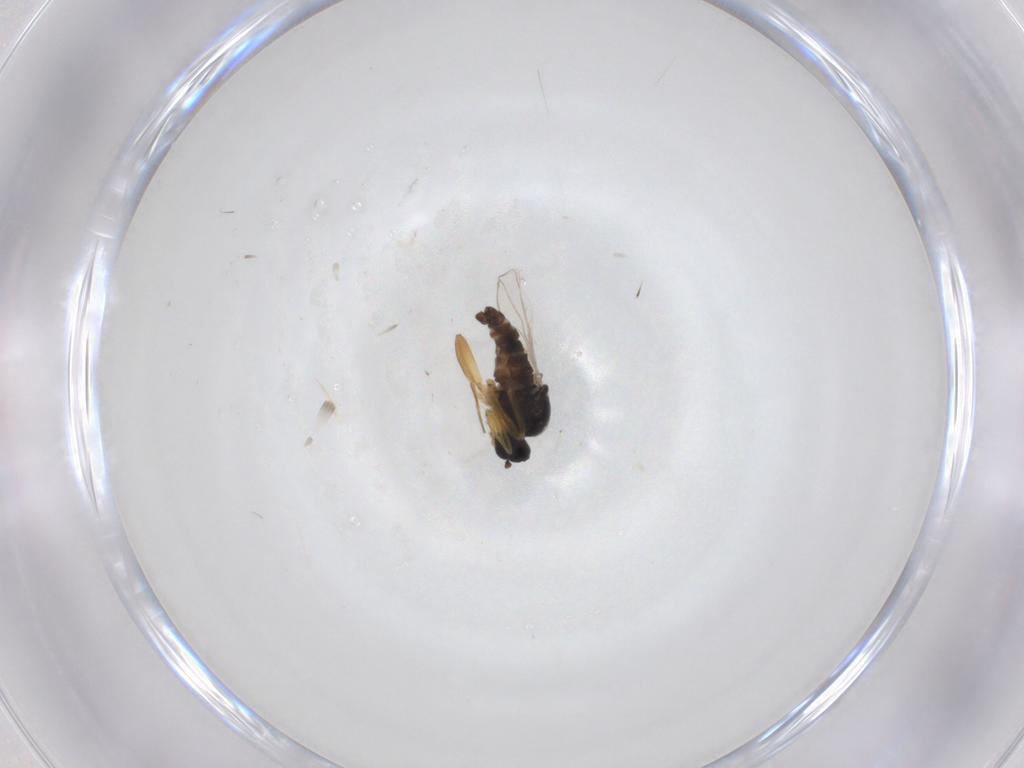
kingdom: Animalia
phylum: Arthropoda
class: Insecta
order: Diptera
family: Hybotidae
